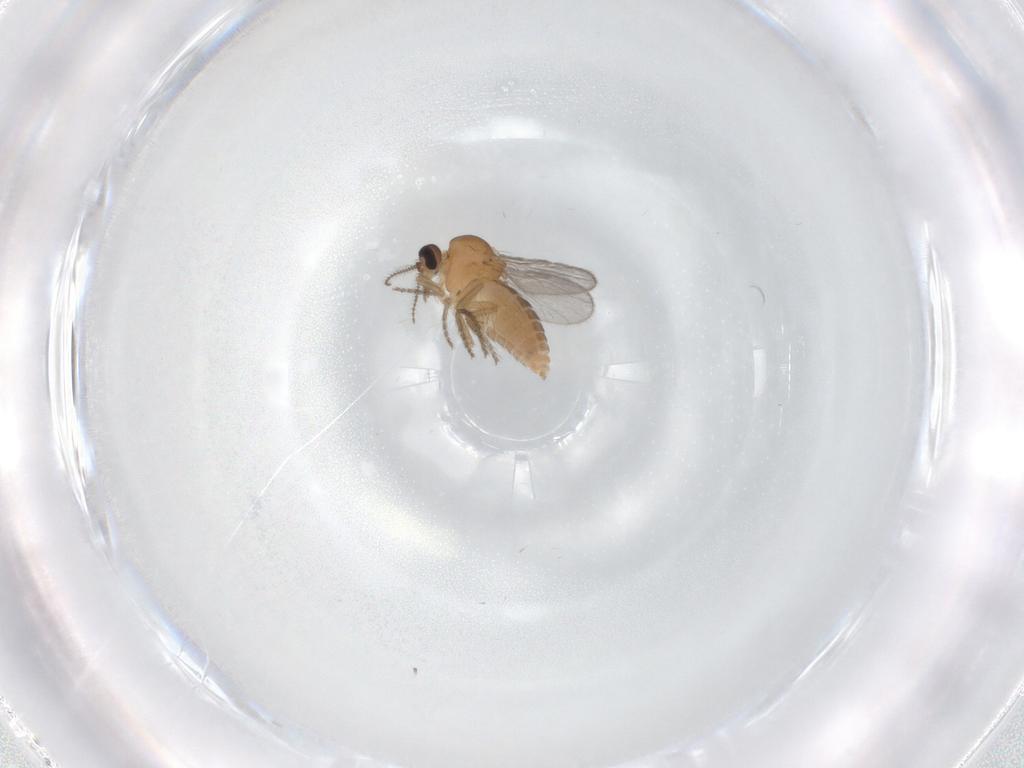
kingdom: Animalia
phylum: Arthropoda
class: Insecta
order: Diptera
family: Ceratopogonidae
